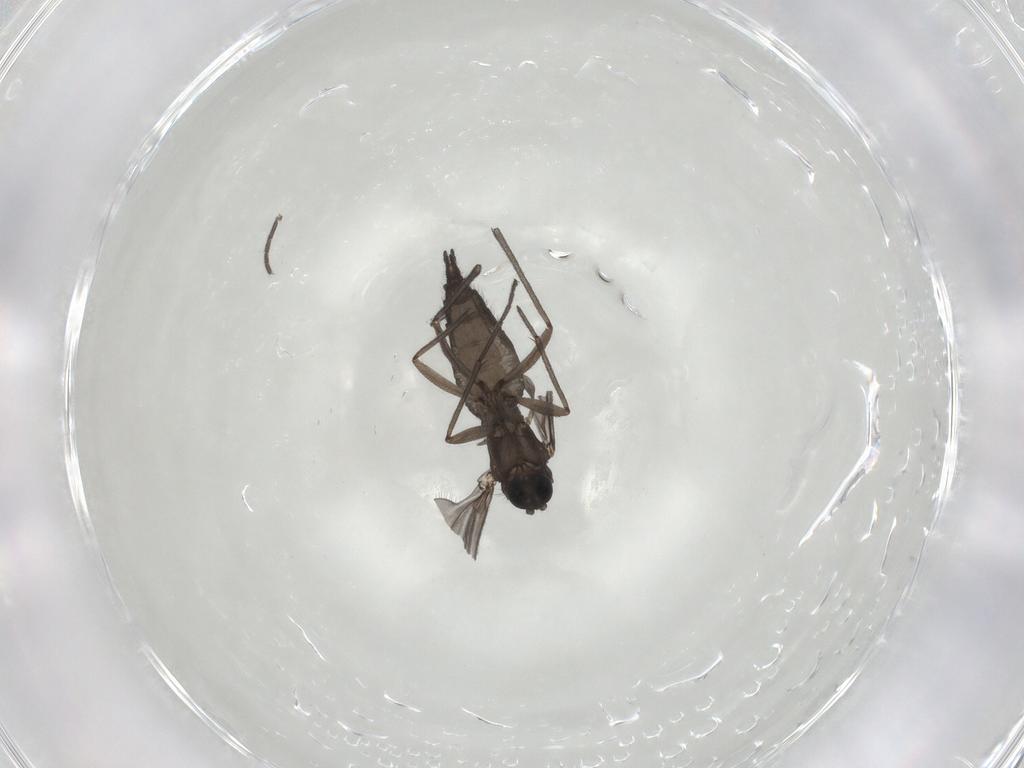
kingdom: Animalia
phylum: Arthropoda
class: Insecta
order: Diptera
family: Sciaridae
